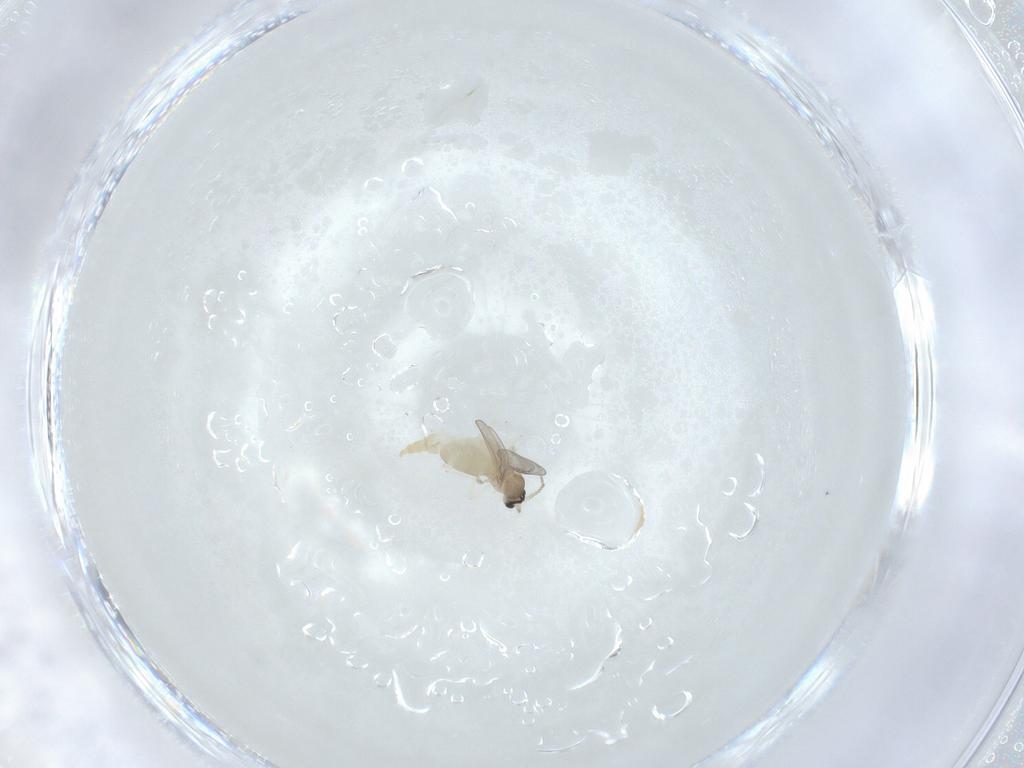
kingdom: Animalia
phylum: Arthropoda
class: Insecta
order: Diptera
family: Cecidomyiidae
